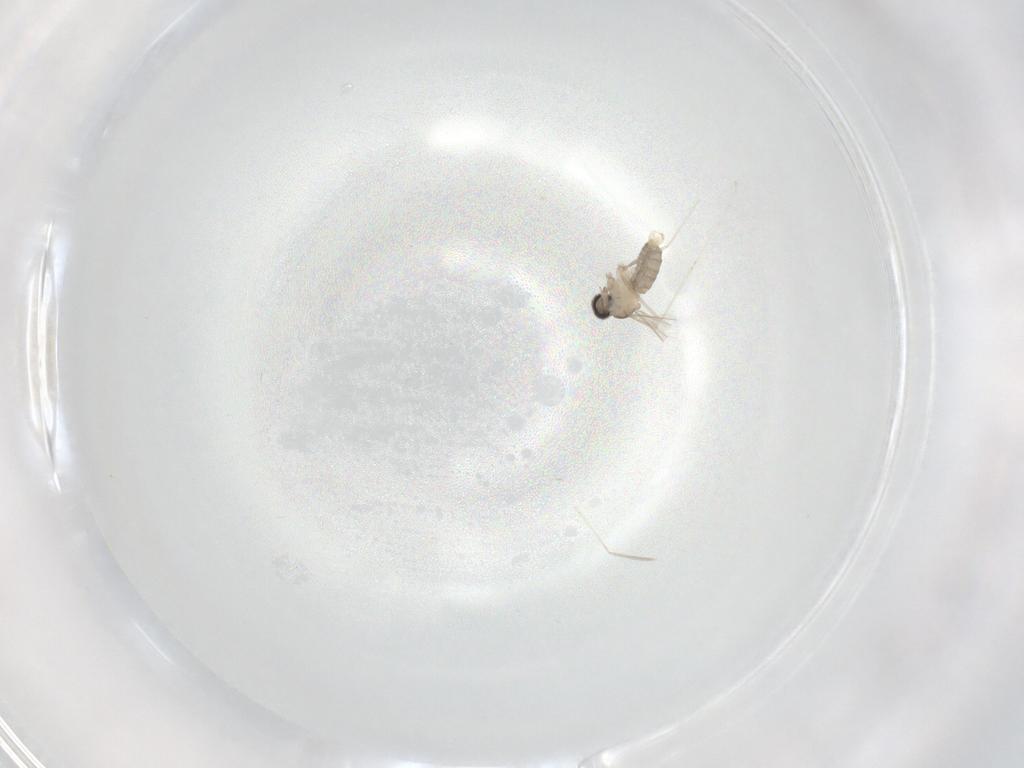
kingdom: Animalia
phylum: Arthropoda
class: Insecta
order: Diptera
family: Cecidomyiidae
